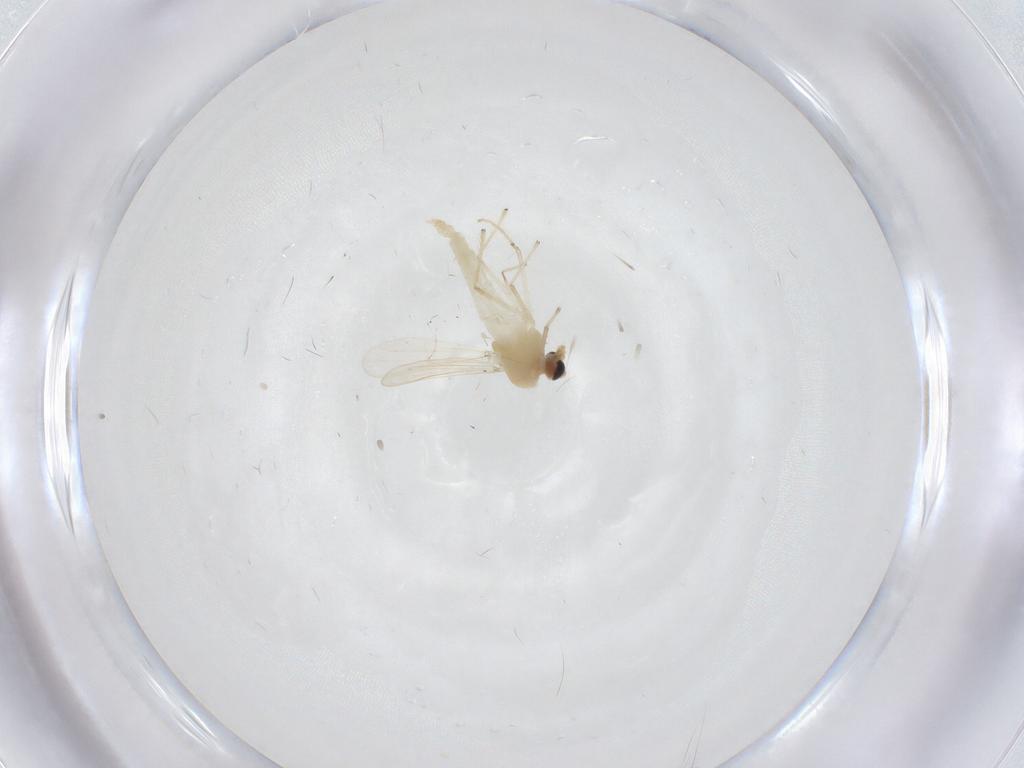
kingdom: Animalia
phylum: Arthropoda
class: Insecta
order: Diptera
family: Chironomidae
